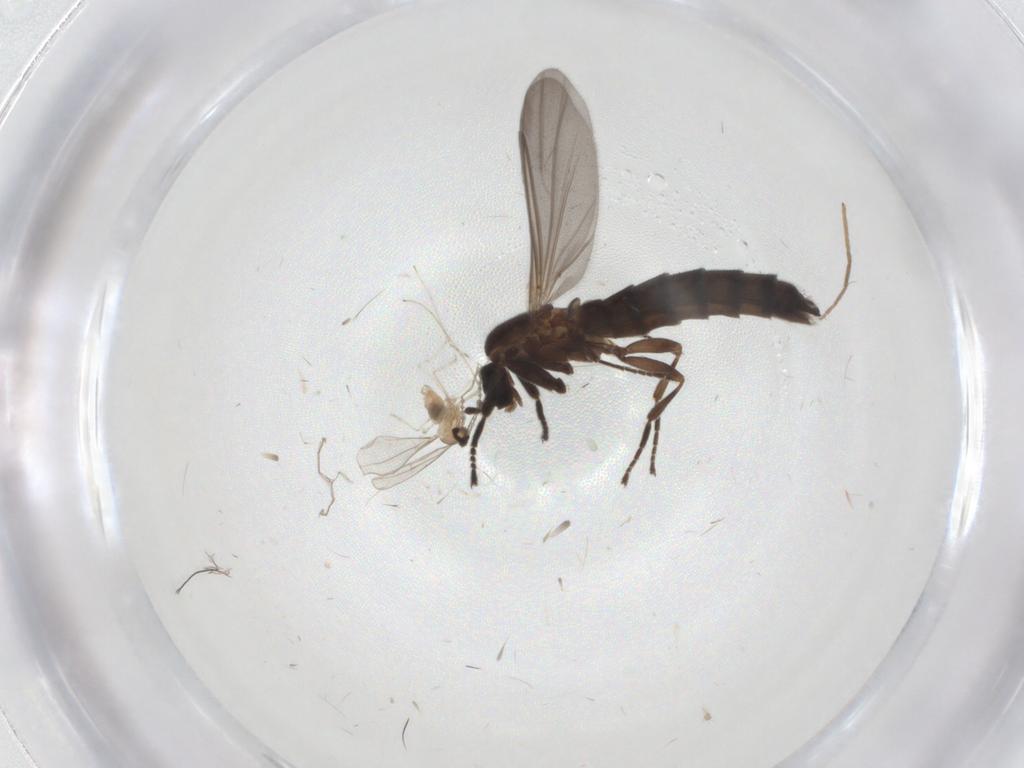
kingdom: Animalia
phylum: Arthropoda
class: Insecta
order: Diptera
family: Scatopsidae
